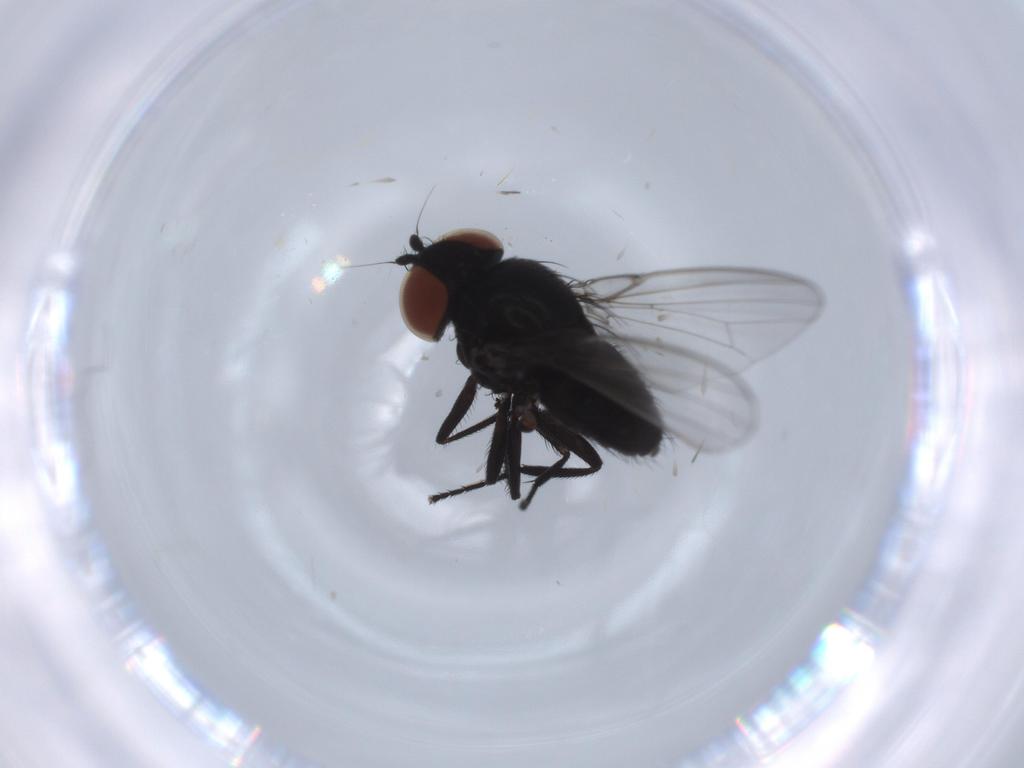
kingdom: Animalia
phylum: Arthropoda
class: Insecta
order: Diptera
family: Milichiidae
